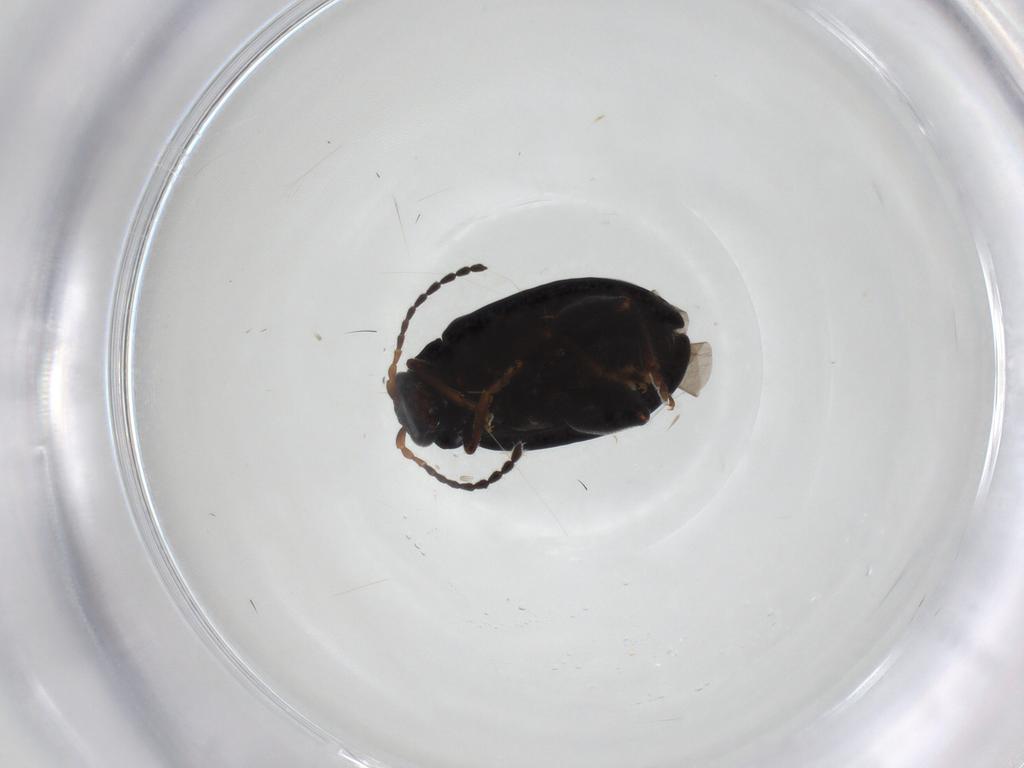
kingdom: Animalia
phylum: Arthropoda
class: Insecta
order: Coleoptera
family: Chrysomelidae
